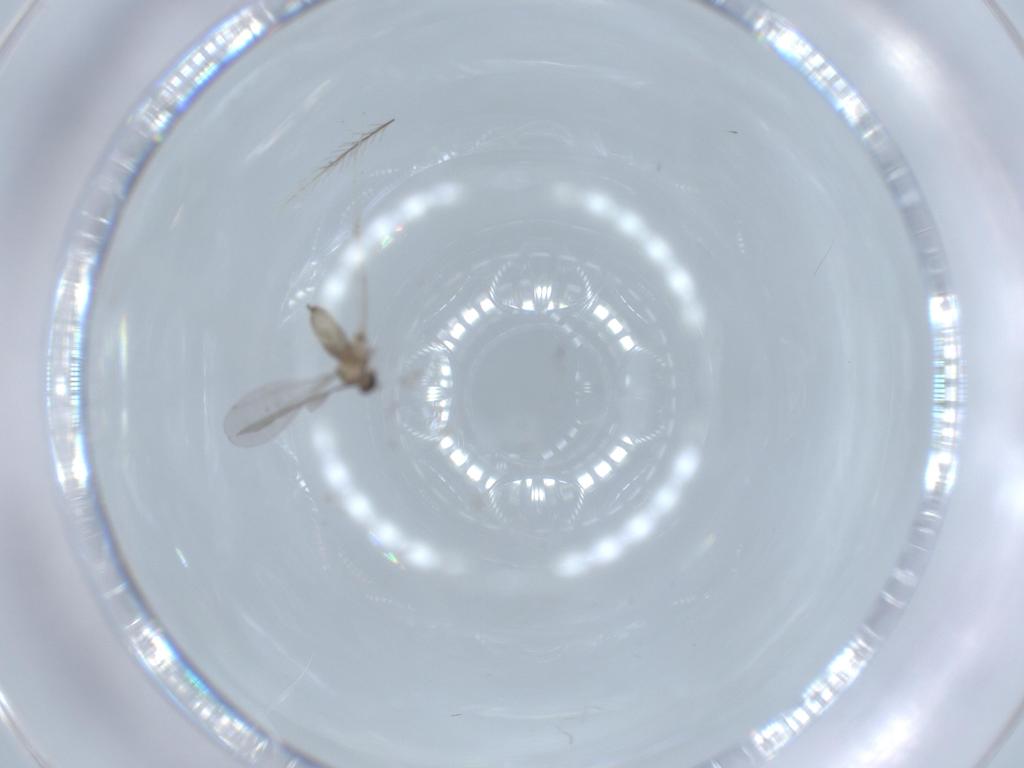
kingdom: Animalia
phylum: Arthropoda
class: Insecta
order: Diptera
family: Cecidomyiidae
